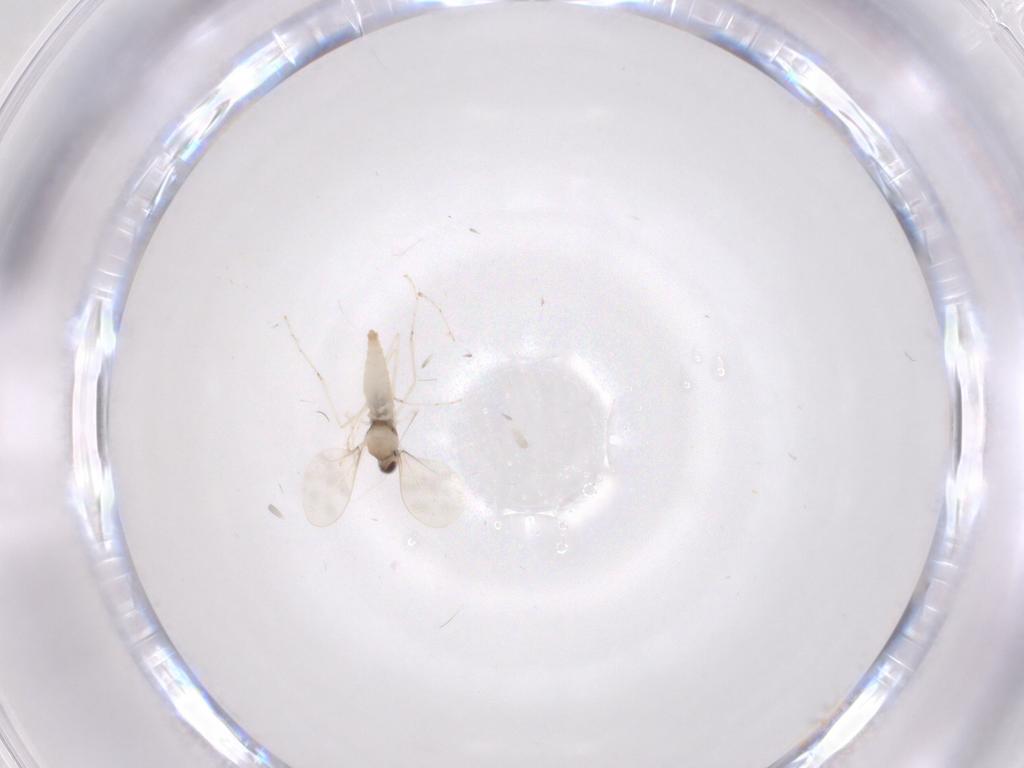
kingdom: Animalia
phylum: Arthropoda
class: Insecta
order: Diptera
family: Cecidomyiidae
